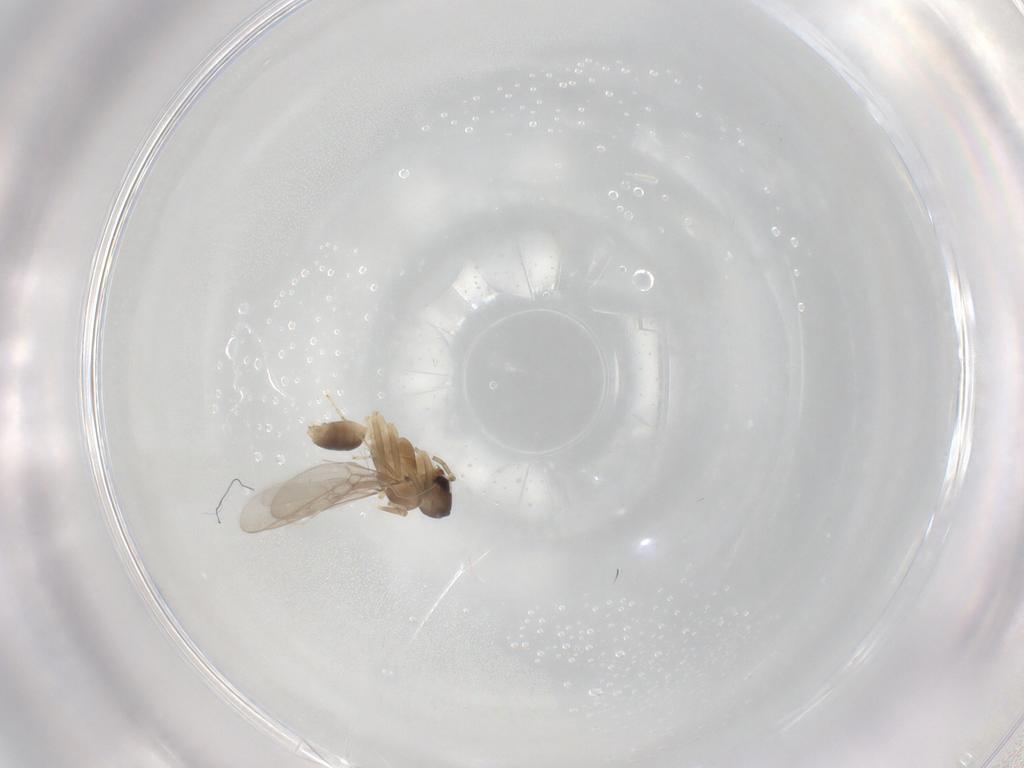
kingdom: Animalia
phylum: Arthropoda
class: Insecta
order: Hymenoptera
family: Formicidae
